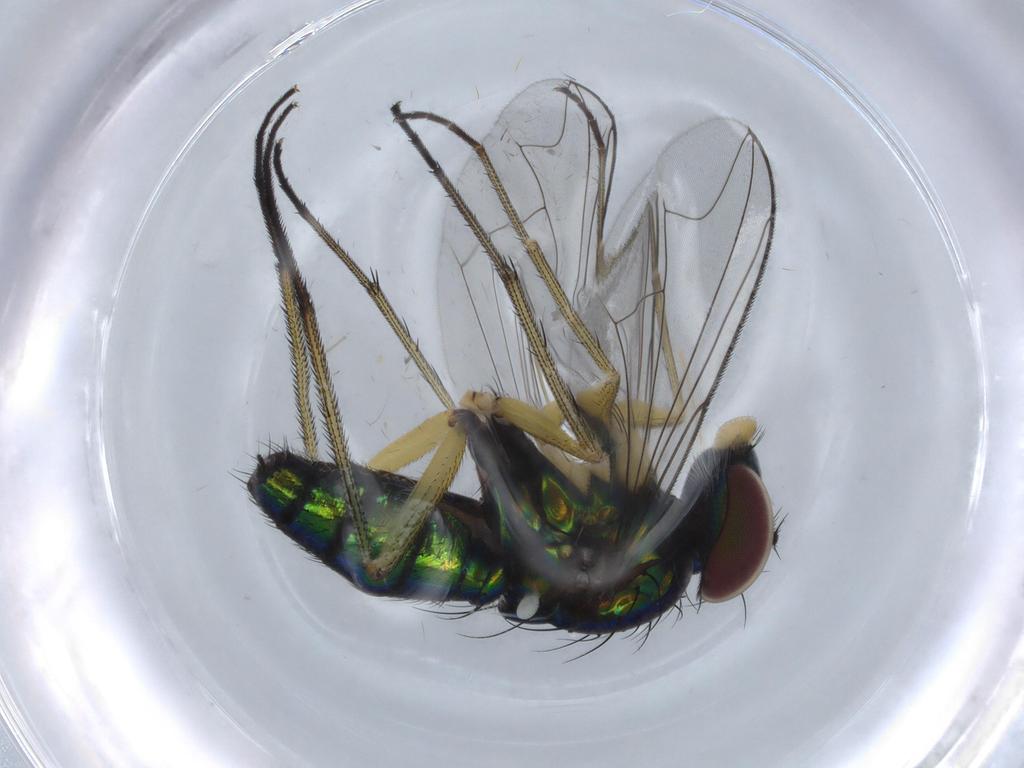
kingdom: Animalia
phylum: Arthropoda
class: Insecta
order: Diptera
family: Dolichopodidae
